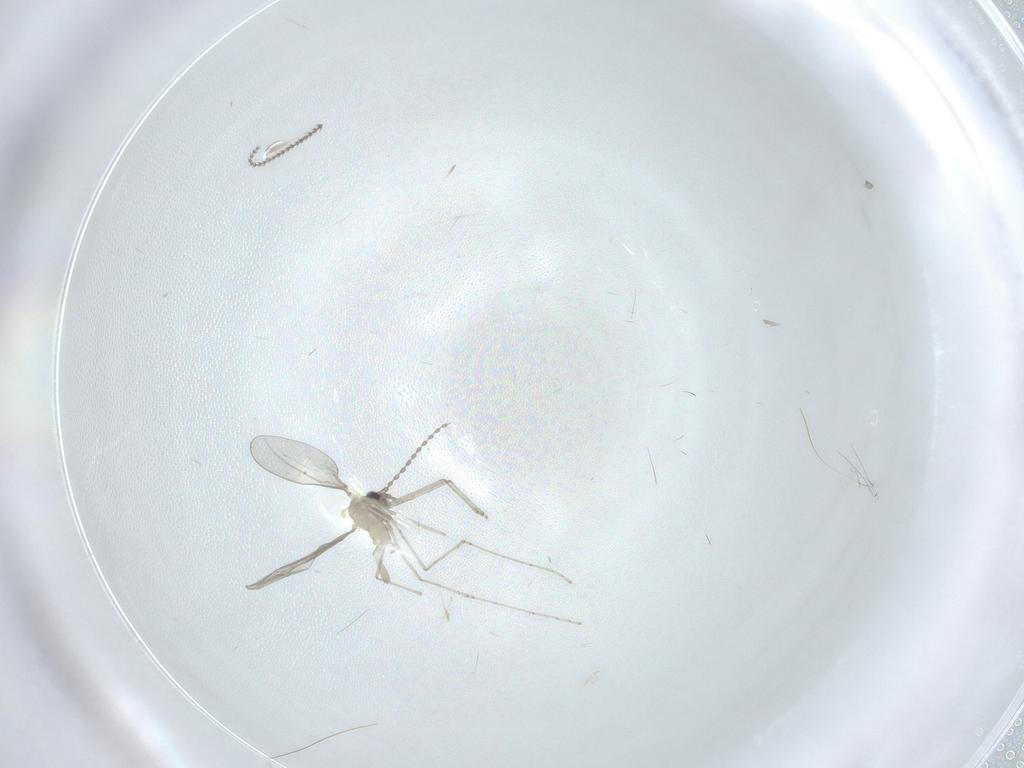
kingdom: Animalia
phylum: Arthropoda
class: Insecta
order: Diptera
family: Cecidomyiidae
